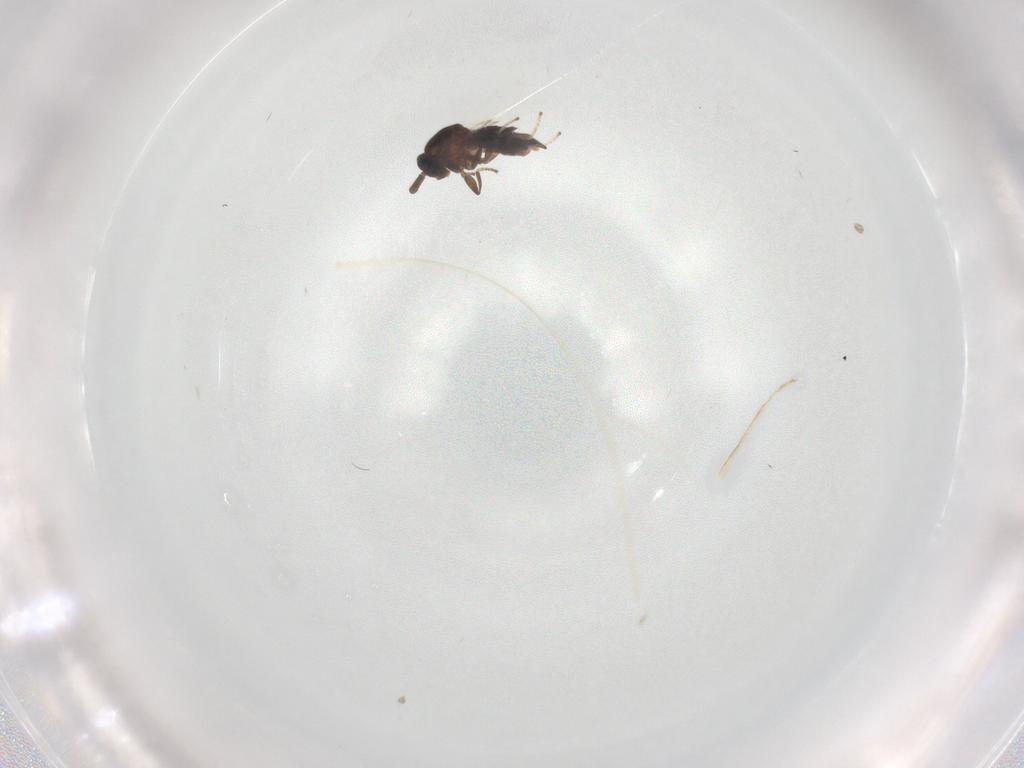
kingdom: Animalia
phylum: Arthropoda
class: Insecta
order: Diptera
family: Scatopsidae
